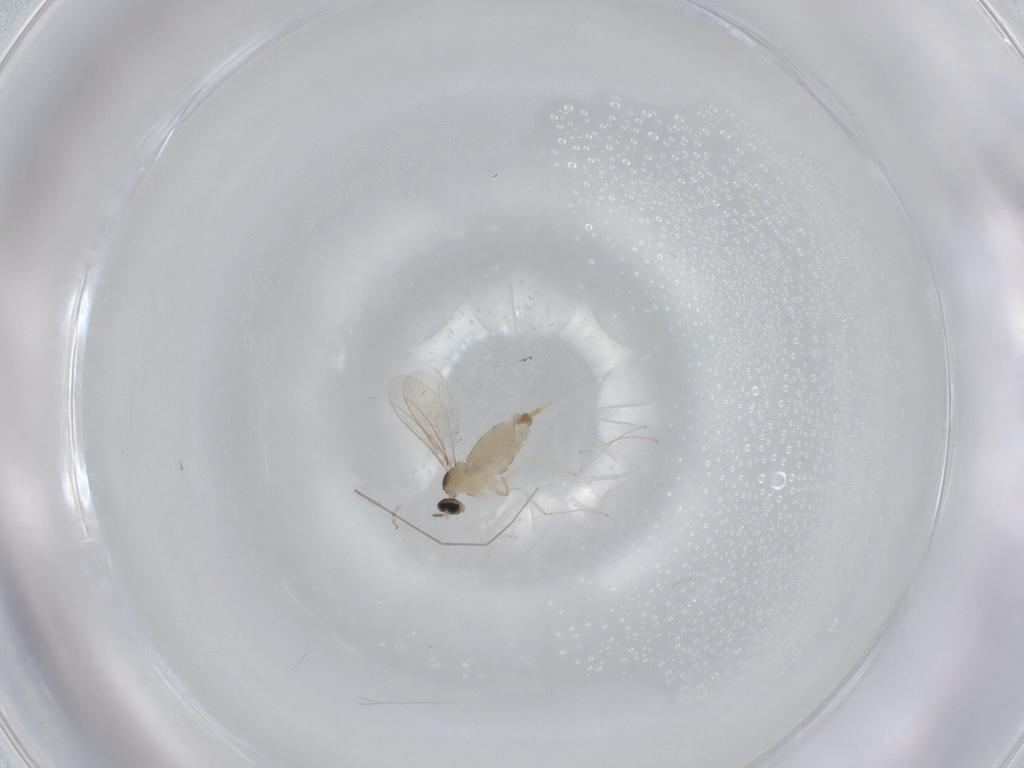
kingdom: Animalia
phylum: Arthropoda
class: Insecta
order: Diptera
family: Cecidomyiidae
